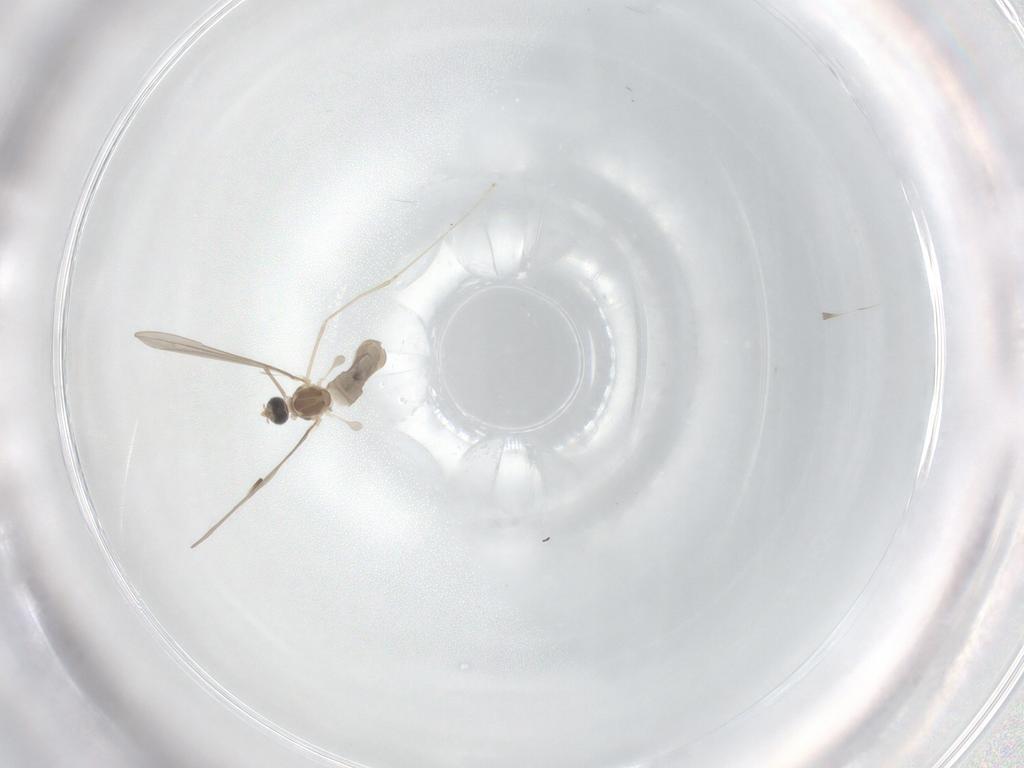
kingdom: Animalia
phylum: Arthropoda
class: Insecta
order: Diptera
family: Cecidomyiidae
